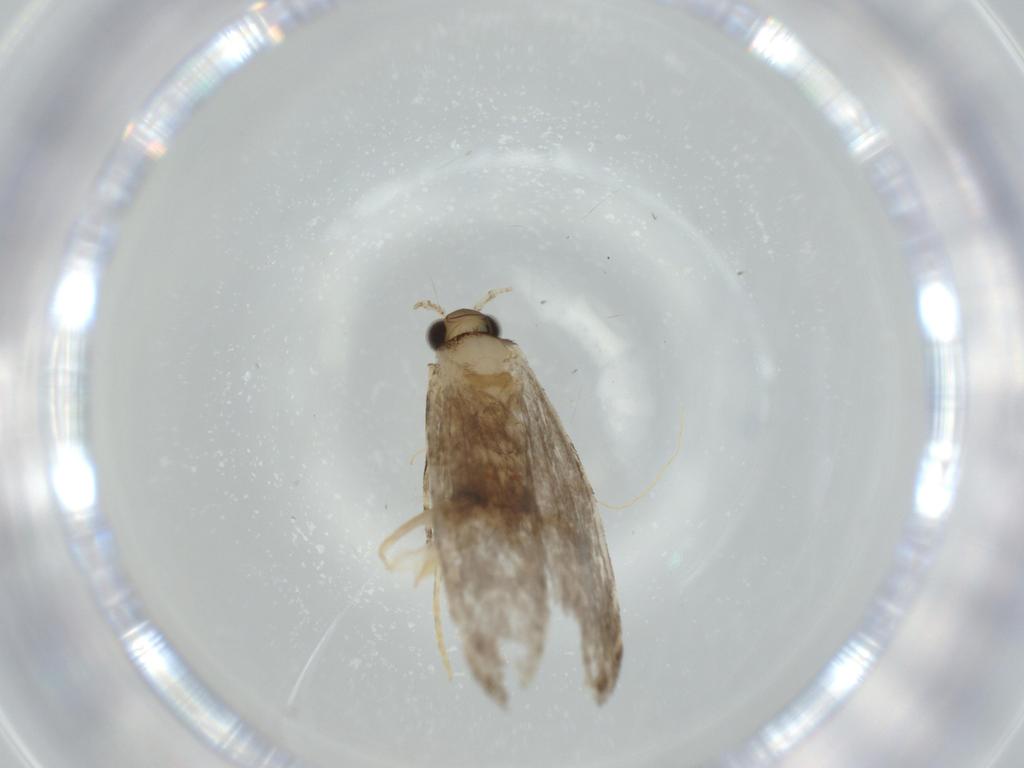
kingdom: Animalia
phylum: Arthropoda
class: Insecta
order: Lepidoptera
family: Tineidae
